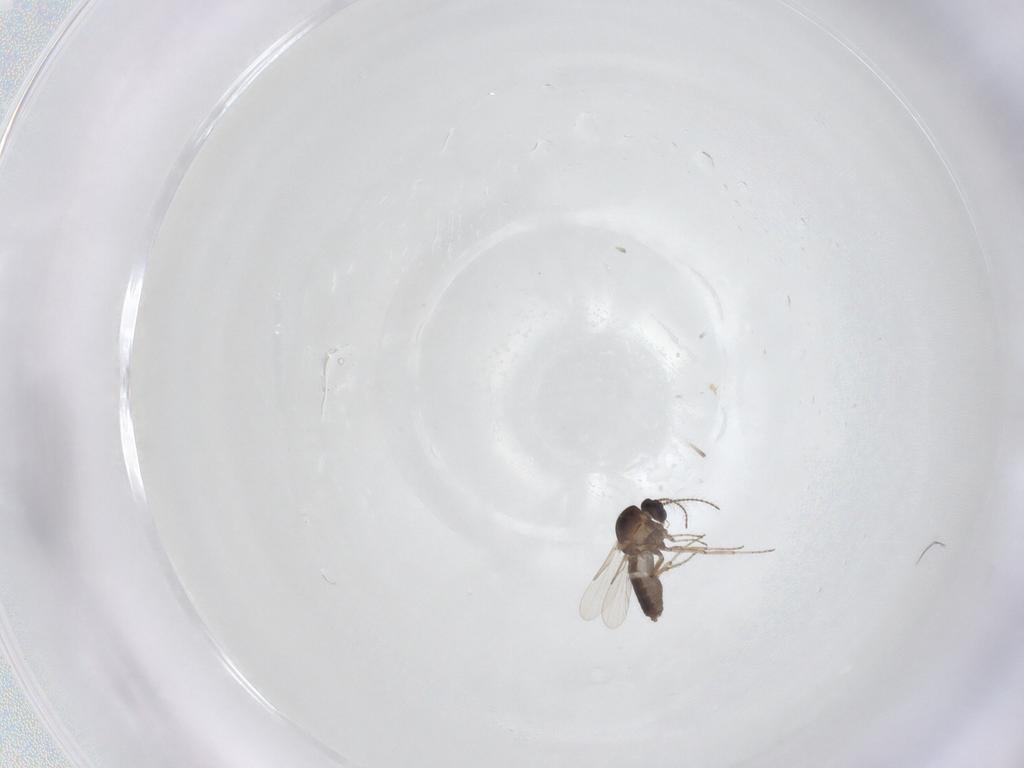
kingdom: Animalia
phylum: Arthropoda
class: Insecta
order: Diptera
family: Ceratopogonidae
